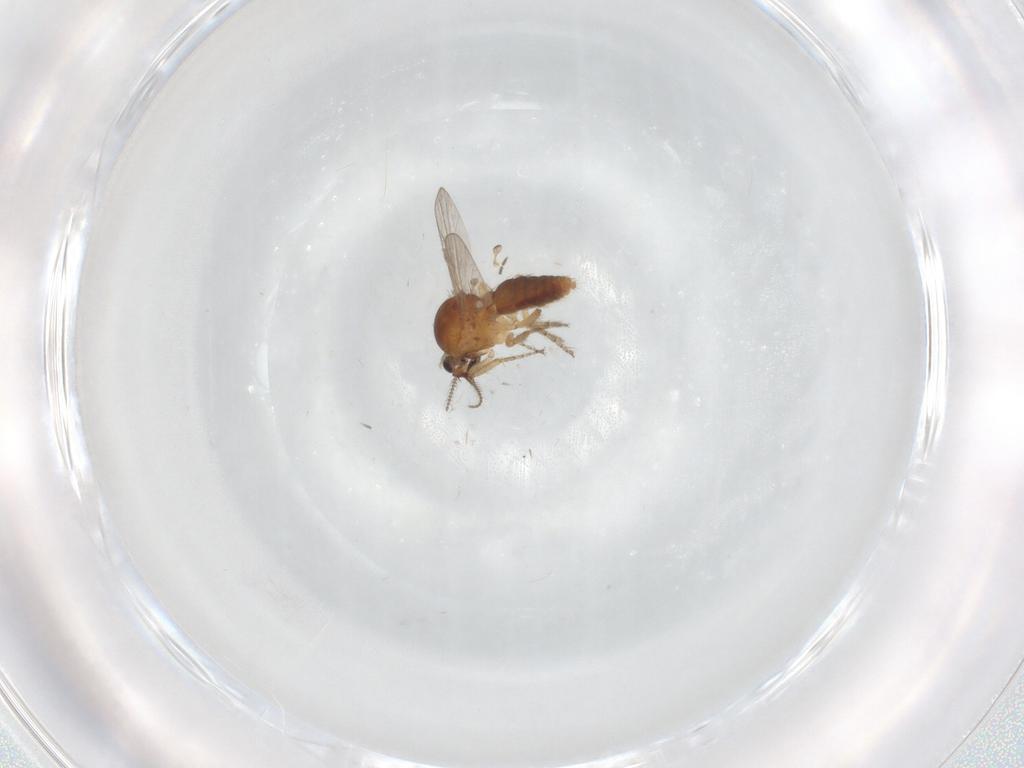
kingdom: Animalia
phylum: Arthropoda
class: Insecta
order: Diptera
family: Ceratopogonidae
